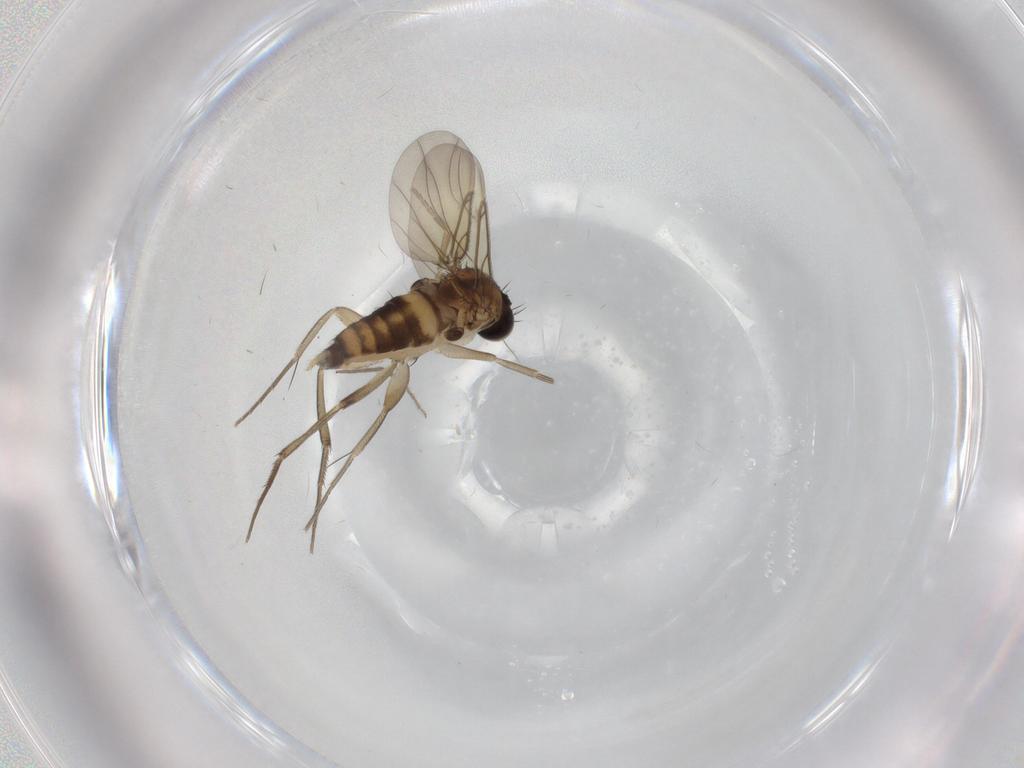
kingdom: Animalia
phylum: Arthropoda
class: Insecta
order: Diptera
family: Phoridae
